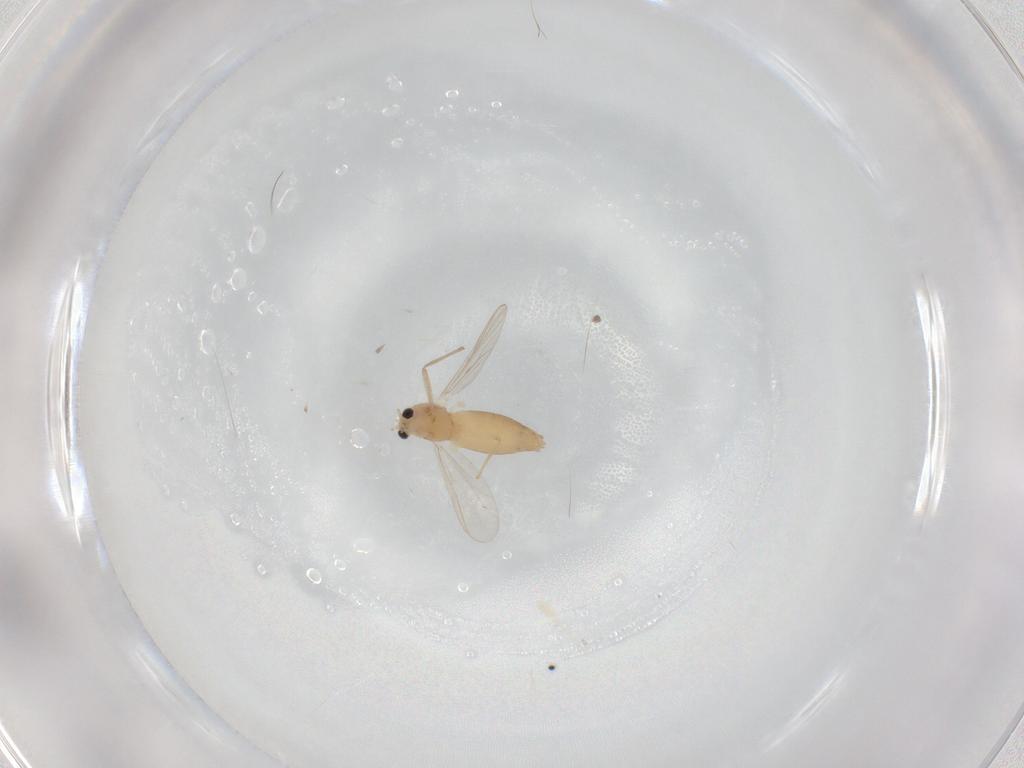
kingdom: Animalia
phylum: Arthropoda
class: Insecta
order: Diptera
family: Chironomidae
